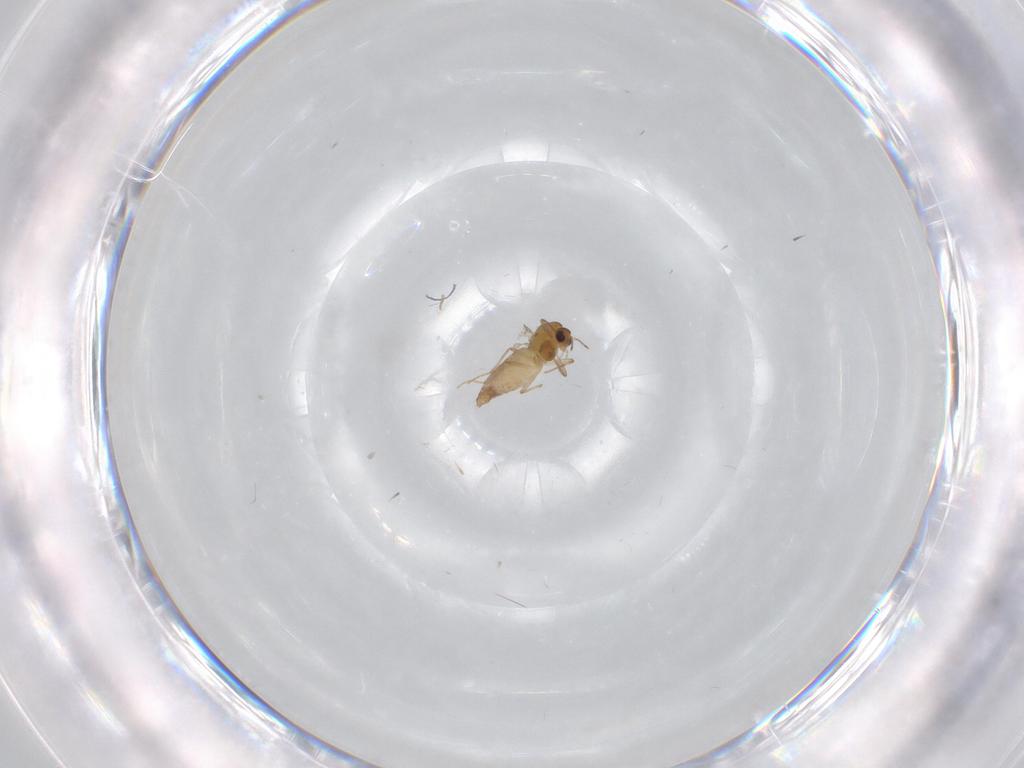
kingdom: Animalia
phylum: Arthropoda
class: Insecta
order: Diptera
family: Chironomidae
